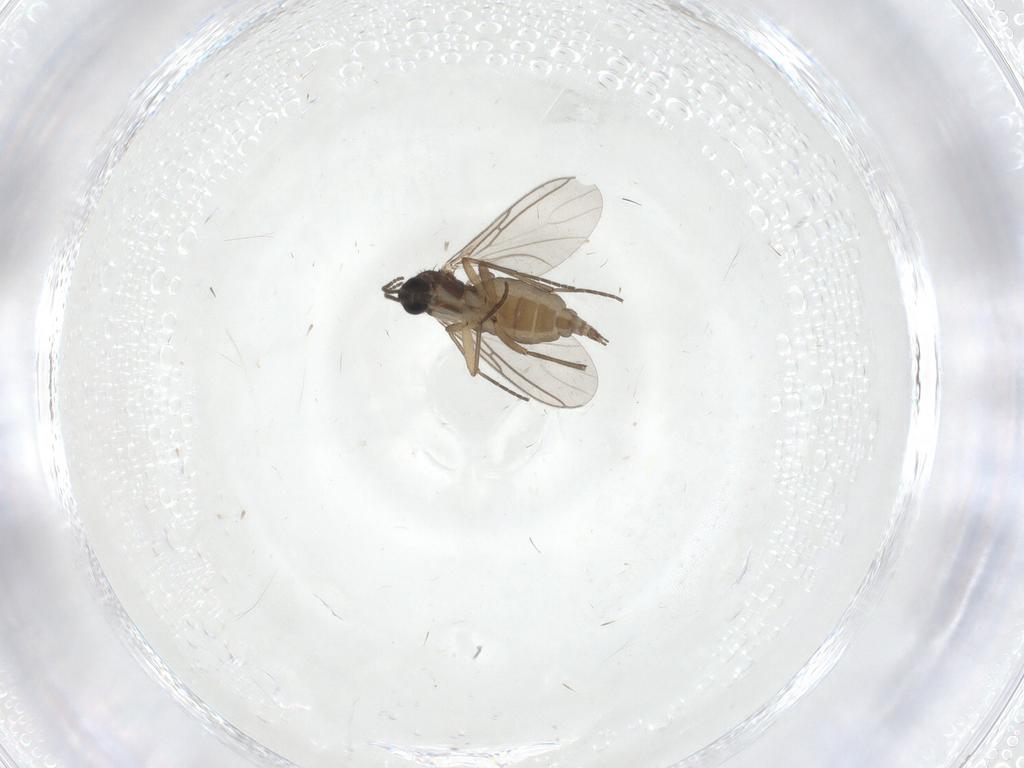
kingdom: Animalia
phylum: Arthropoda
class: Insecta
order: Diptera
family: Sciaridae
